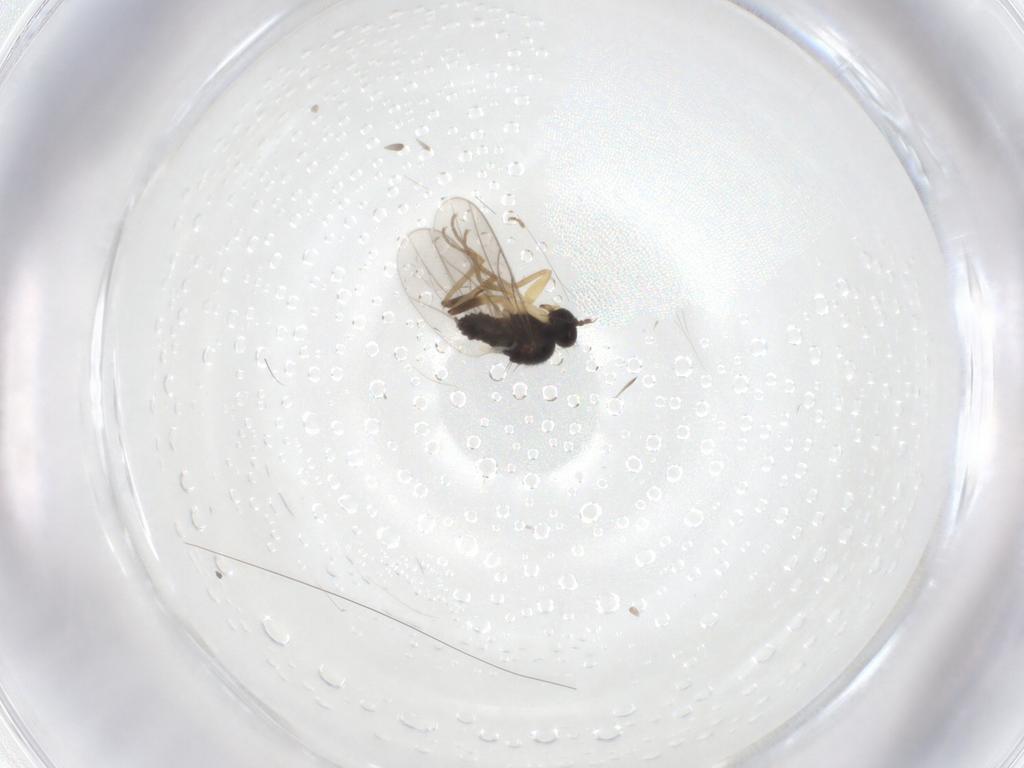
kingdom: Animalia
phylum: Arthropoda
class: Insecta
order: Diptera
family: Hybotidae
